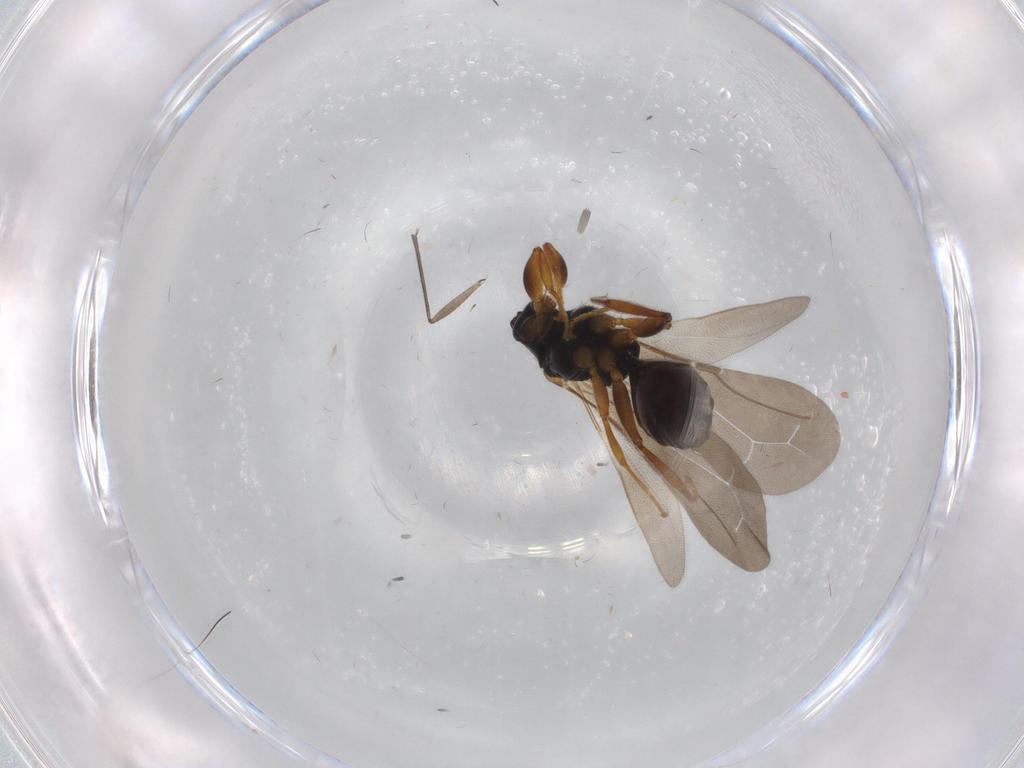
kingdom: Animalia
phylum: Arthropoda
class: Insecta
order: Hymenoptera
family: Bethylidae
